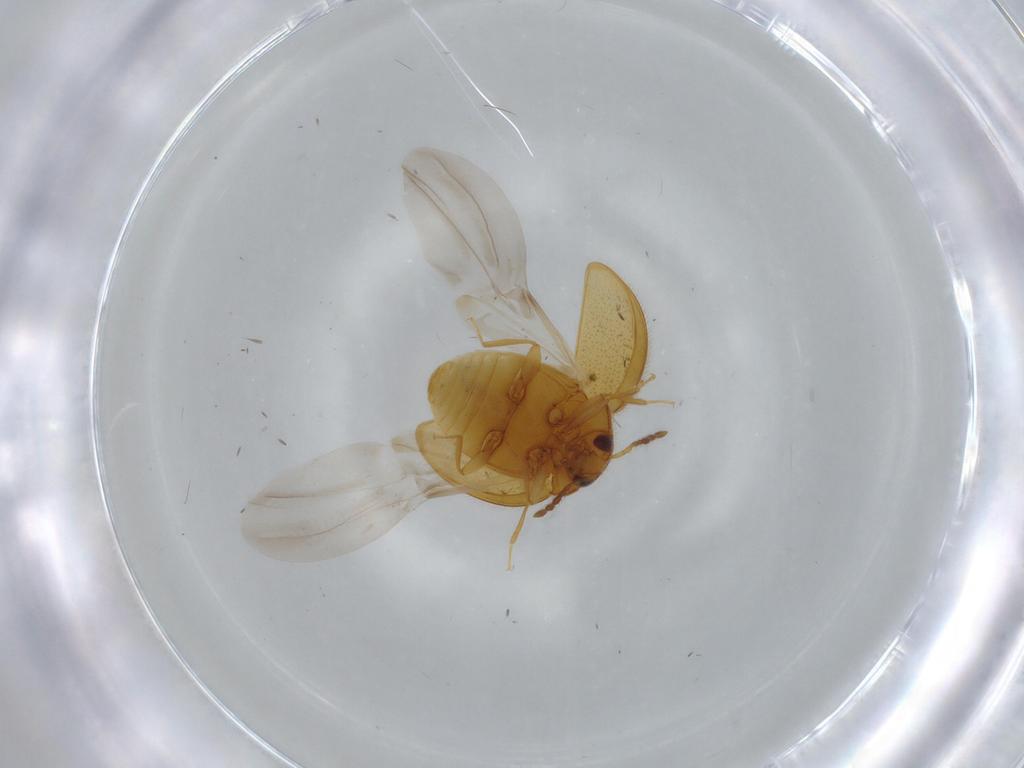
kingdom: Animalia
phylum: Arthropoda
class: Insecta
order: Coleoptera
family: Anamorphidae
